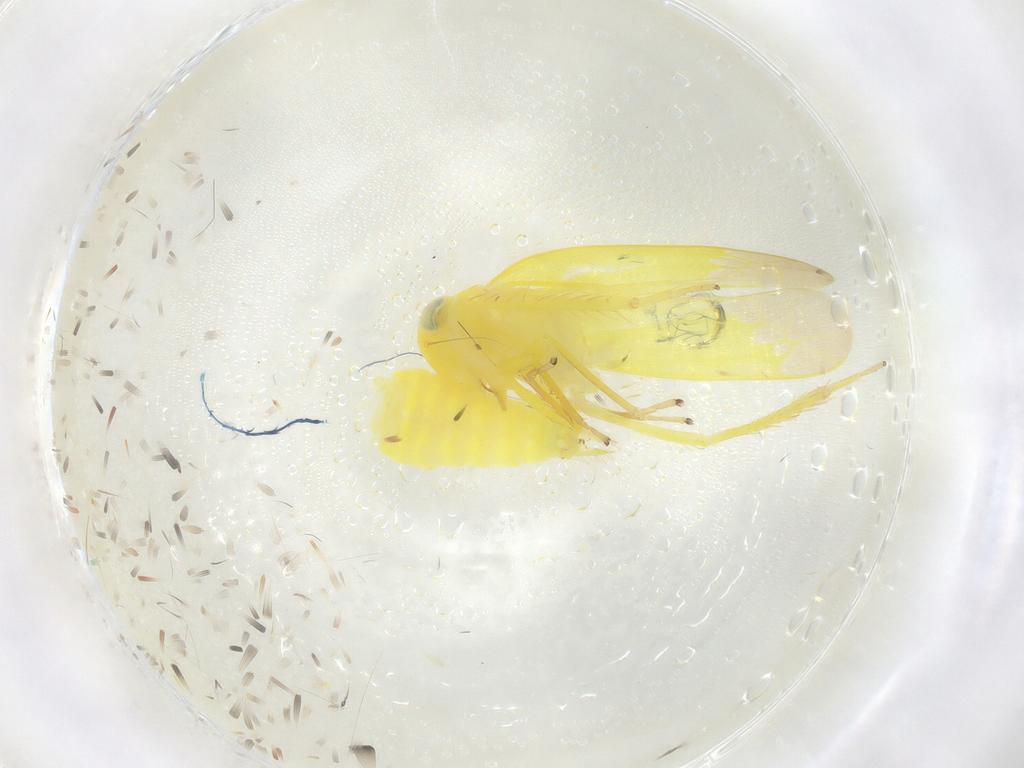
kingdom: Animalia
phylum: Arthropoda
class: Insecta
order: Hemiptera
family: Cicadellidae
